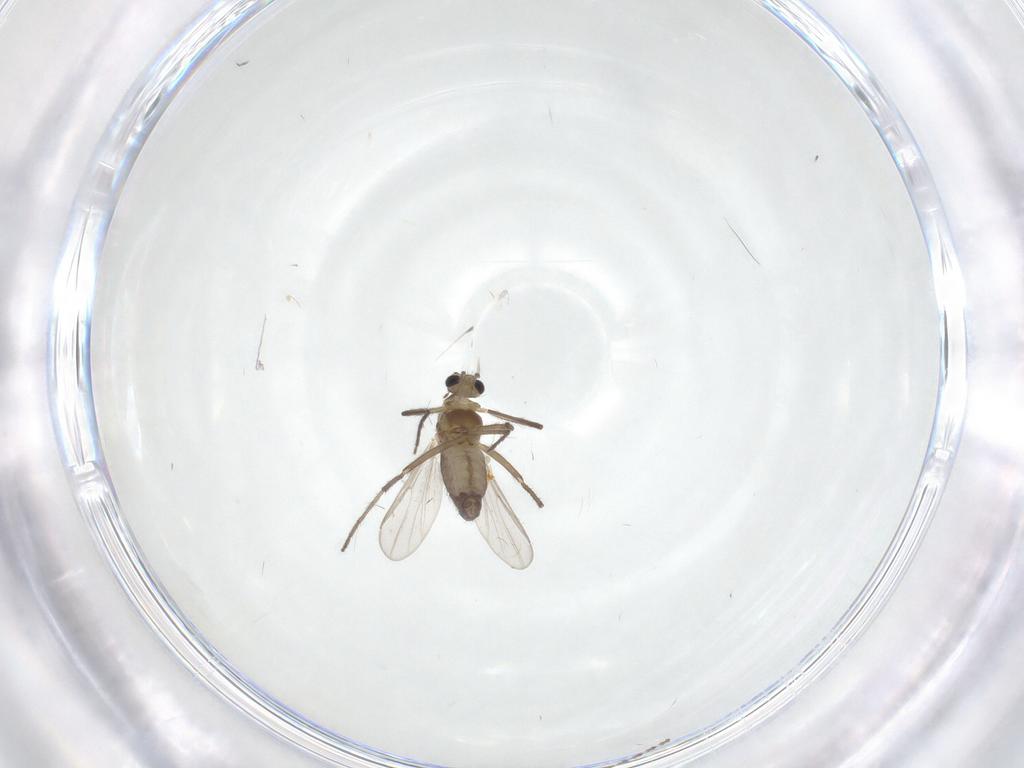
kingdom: Animalia
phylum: Arthropoda
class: Insecta
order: Diptera
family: Chironomidae
